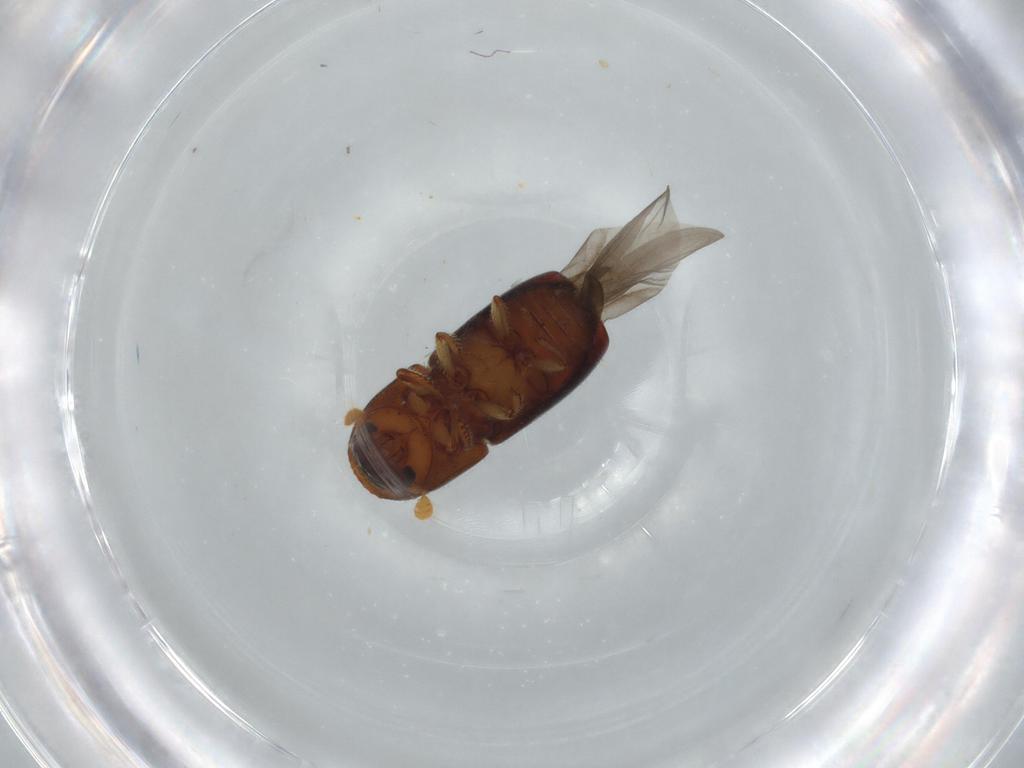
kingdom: Animalia
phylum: Arthropoda
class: Insecta
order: Coleoptera
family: Curculionidae
